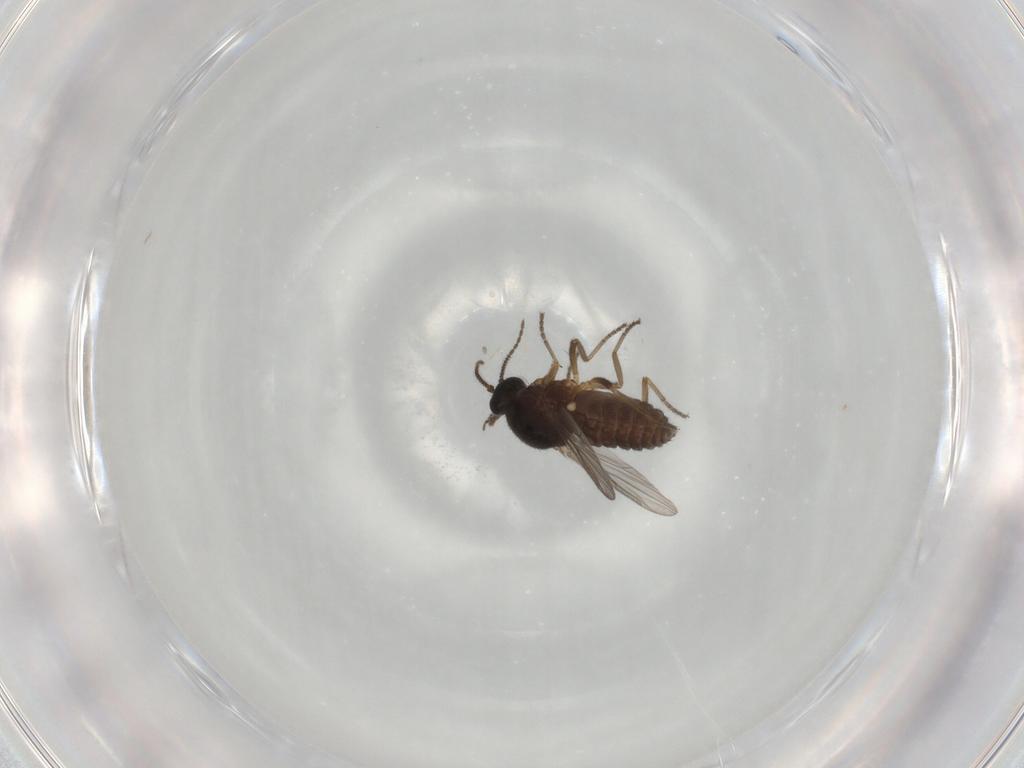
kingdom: Animalia
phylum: Arthropoda
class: Insecta
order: Diptera
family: Ceratopogonidae
